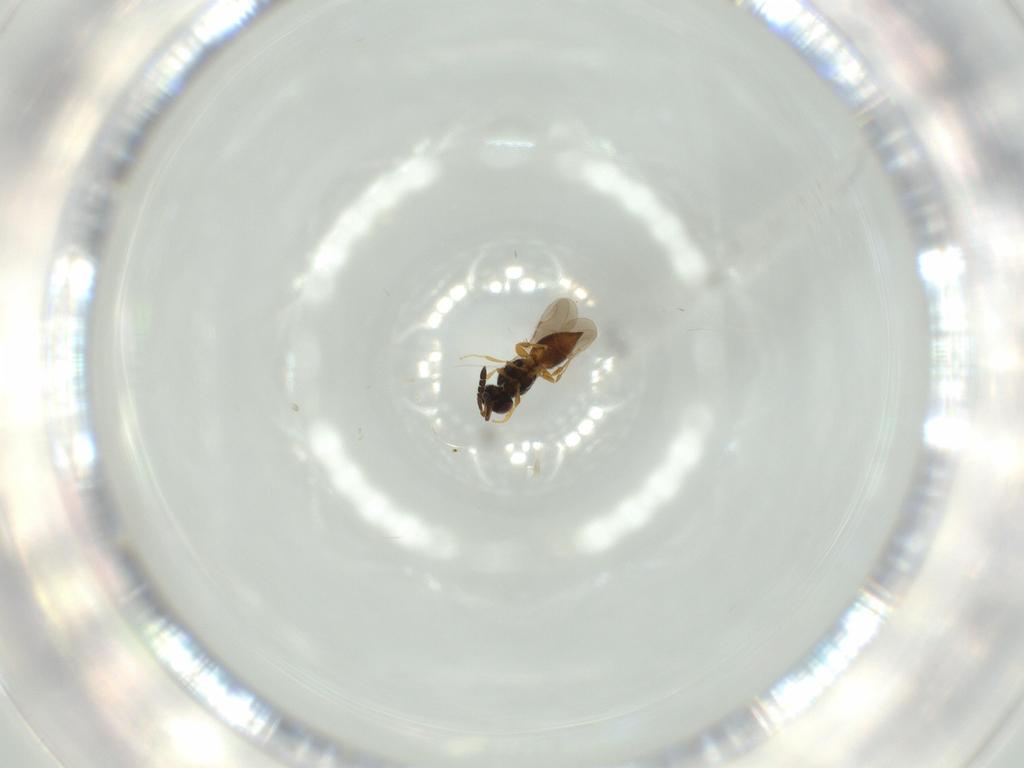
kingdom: Animalia
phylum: Arthropoda
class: Insecta
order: Hymenoptera
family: Ceraphronidae
